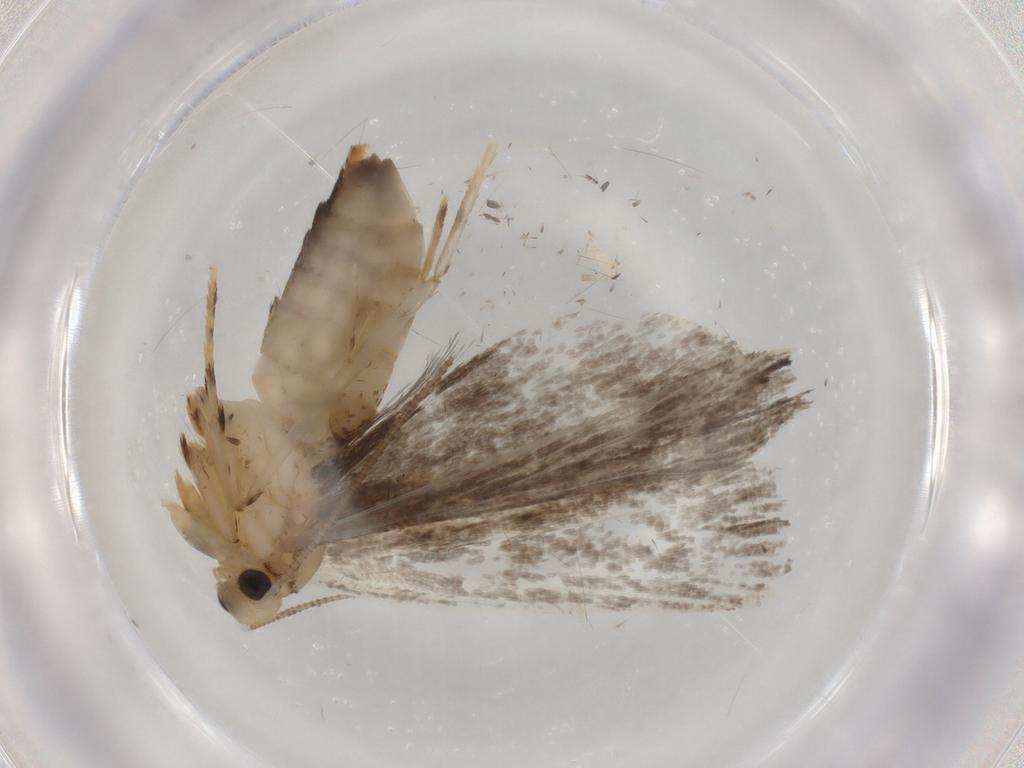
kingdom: Animalia
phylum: Arthropoda
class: Insecta
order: Lepidoptera
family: Tineidae
